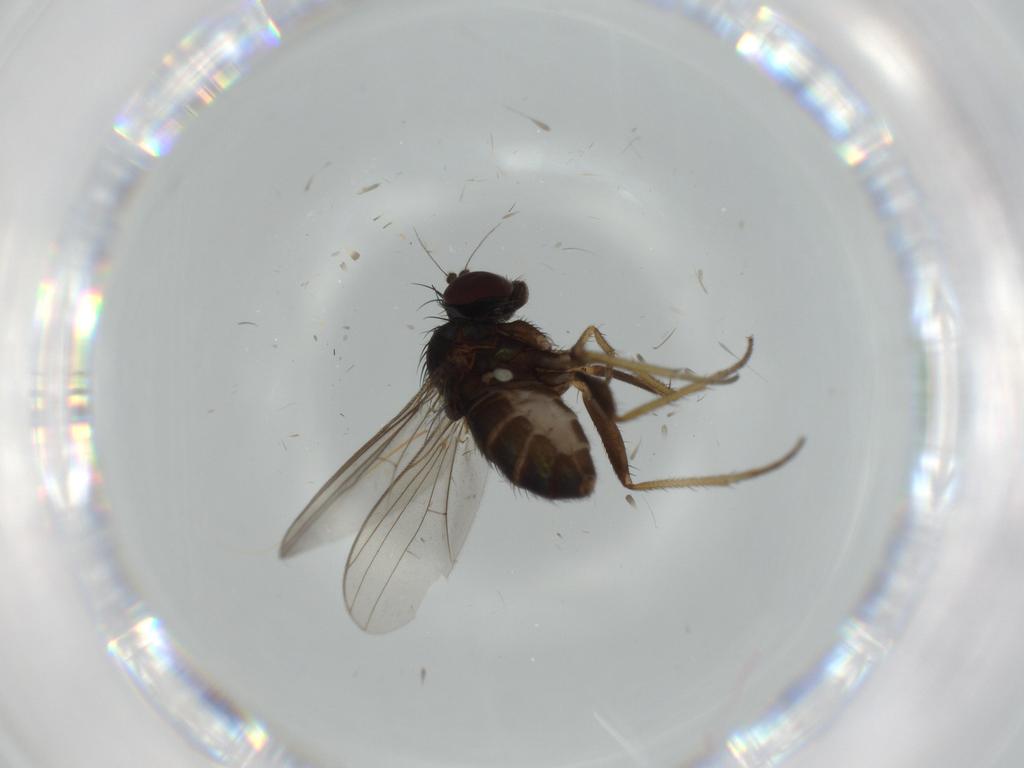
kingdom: Animalia
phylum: Arthropoda
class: Insecta
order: Diptera
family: Dolichopodidae
